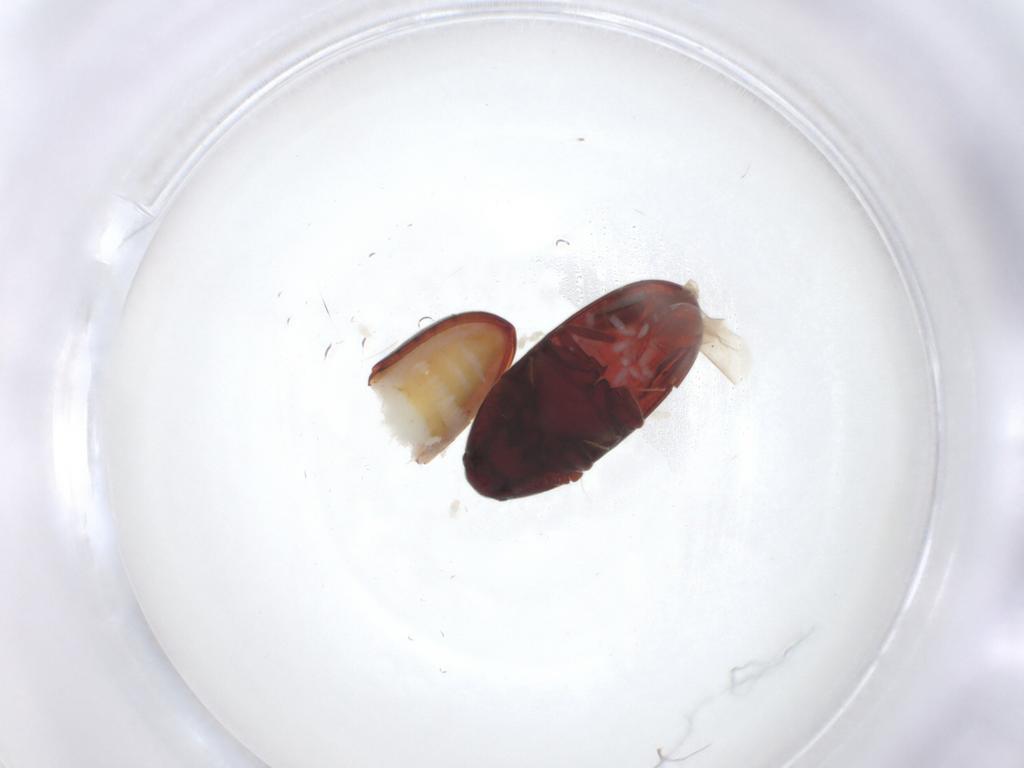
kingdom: Animalia
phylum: Arthropoda
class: Insecta
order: Coleoptera
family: Throscidae
